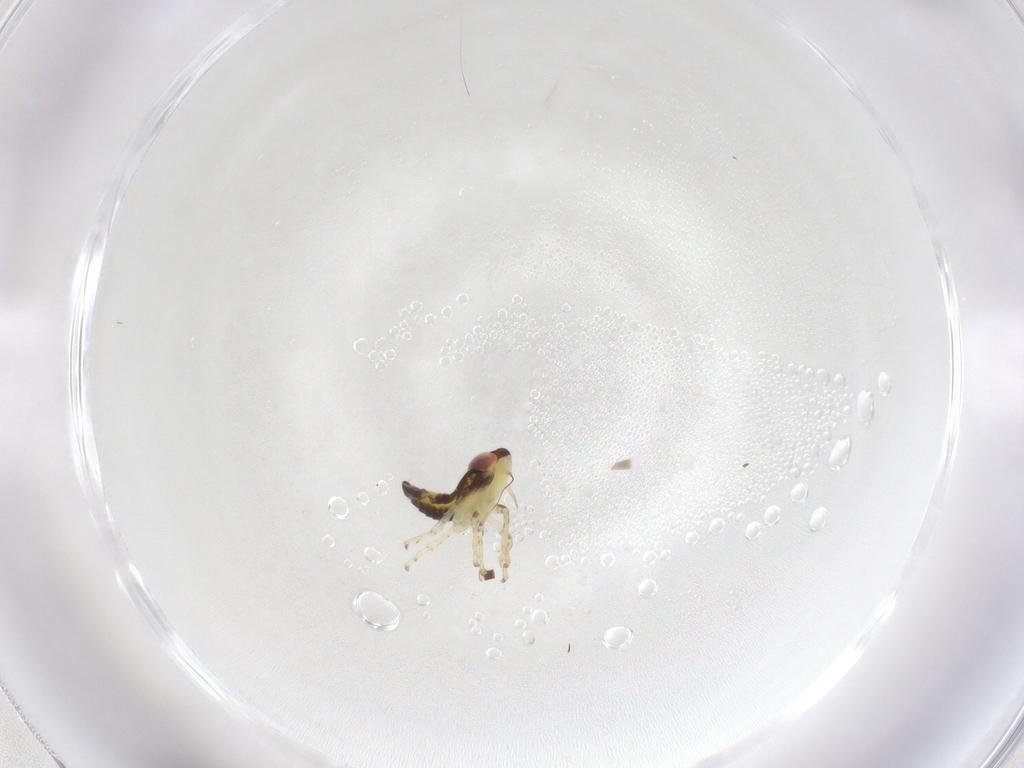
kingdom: Animalia
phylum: Arthropoda
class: Insecta
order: Hemiptera
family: Cicadellidae
